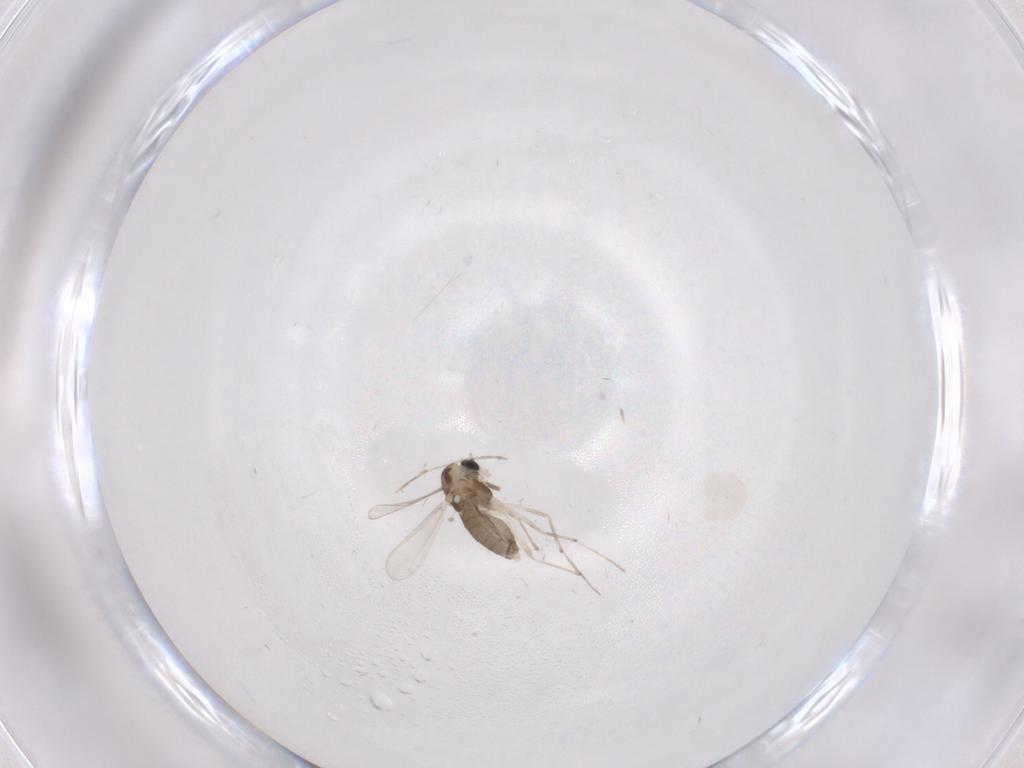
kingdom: Animalia
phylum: Arthropoda
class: Insecta
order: Diptera
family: Chironomidae
